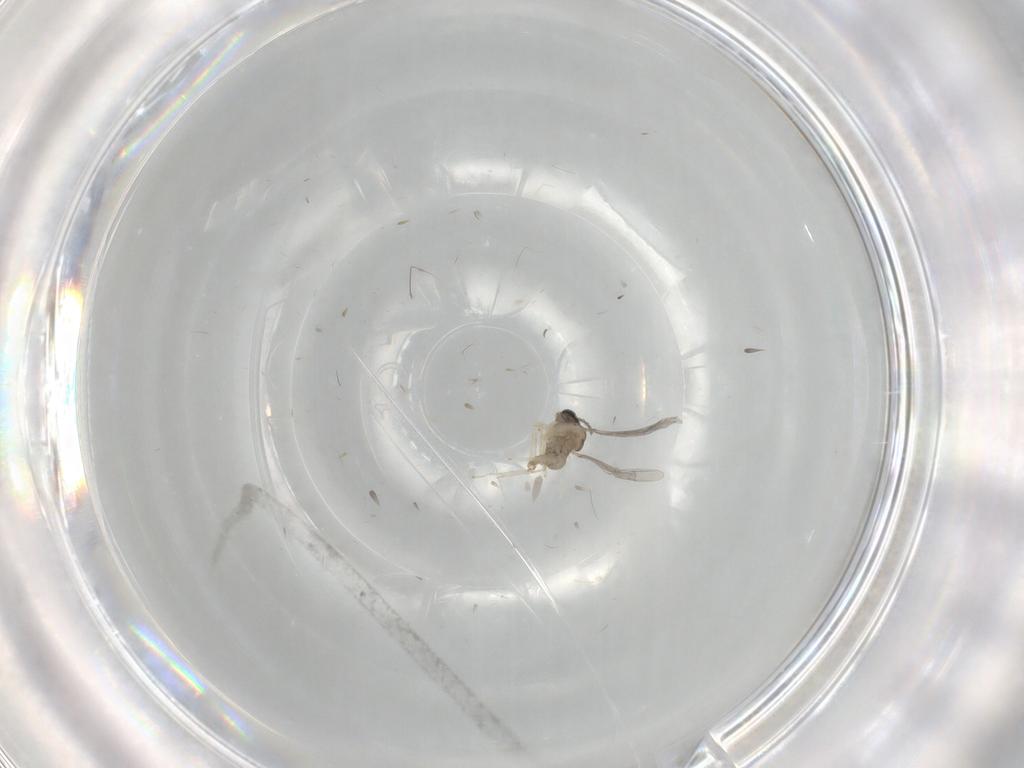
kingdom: Animalia
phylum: Arthropoda
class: Insecta
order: Diptera
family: Cecidomyiidae
